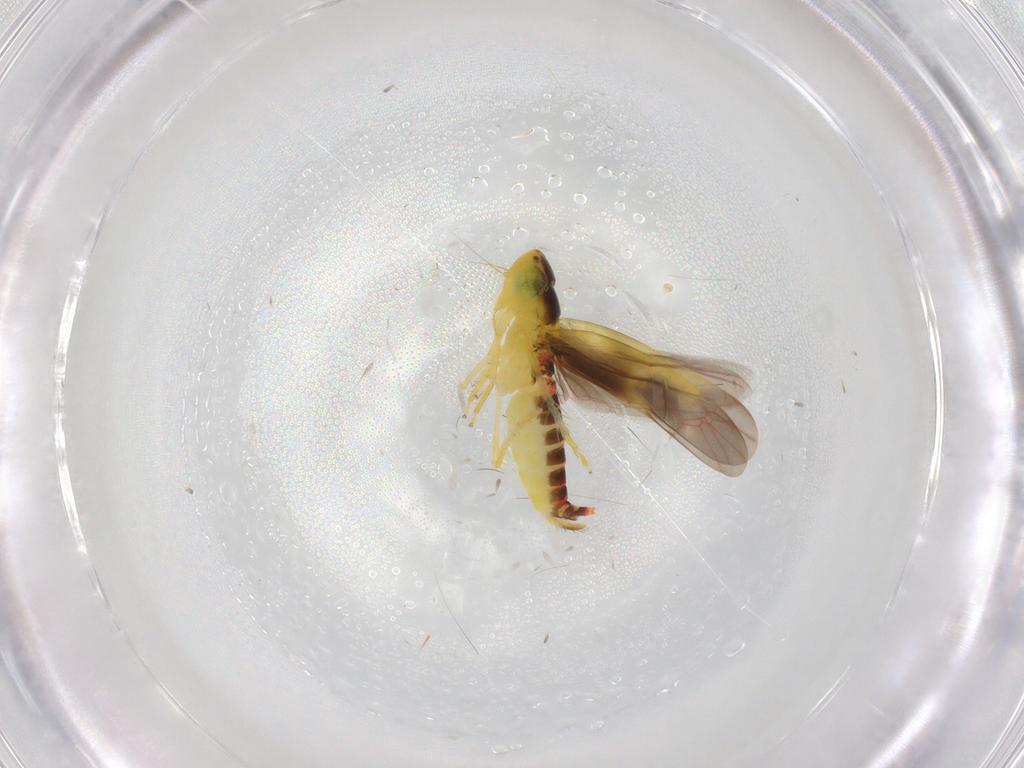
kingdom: Animalia
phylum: Arthropoda
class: Insecta
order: Hemiptera
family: Cicadellidae
